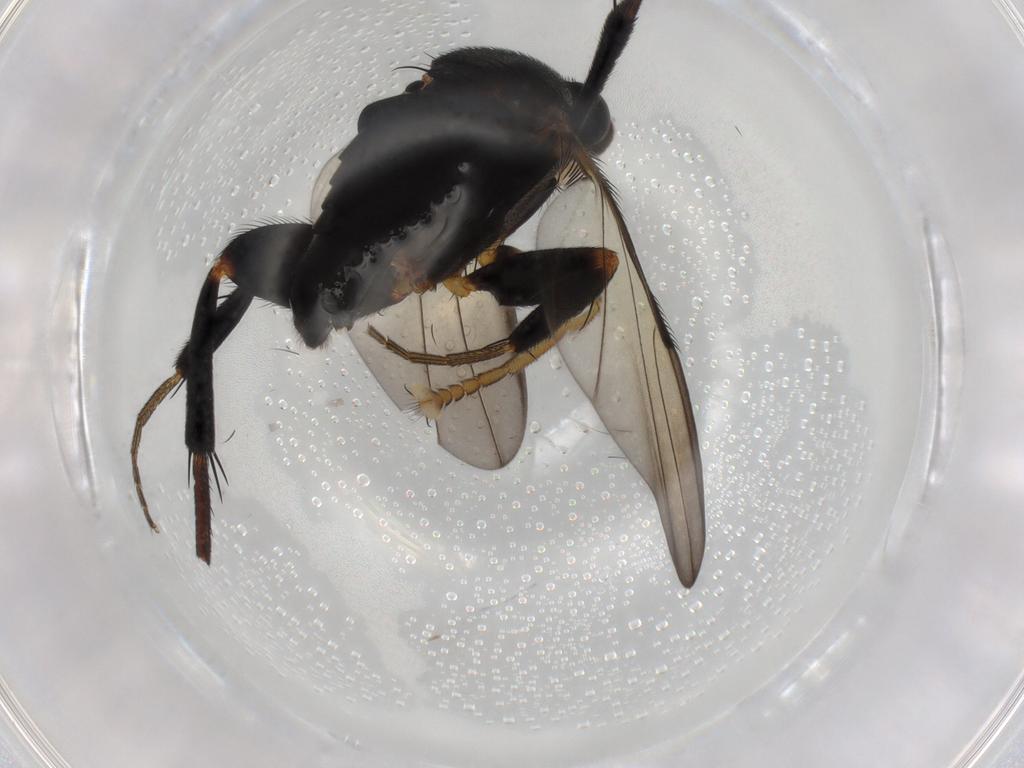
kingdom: Animalia
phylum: Arthropoda
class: Insecta
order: Diptera
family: Phoridae
